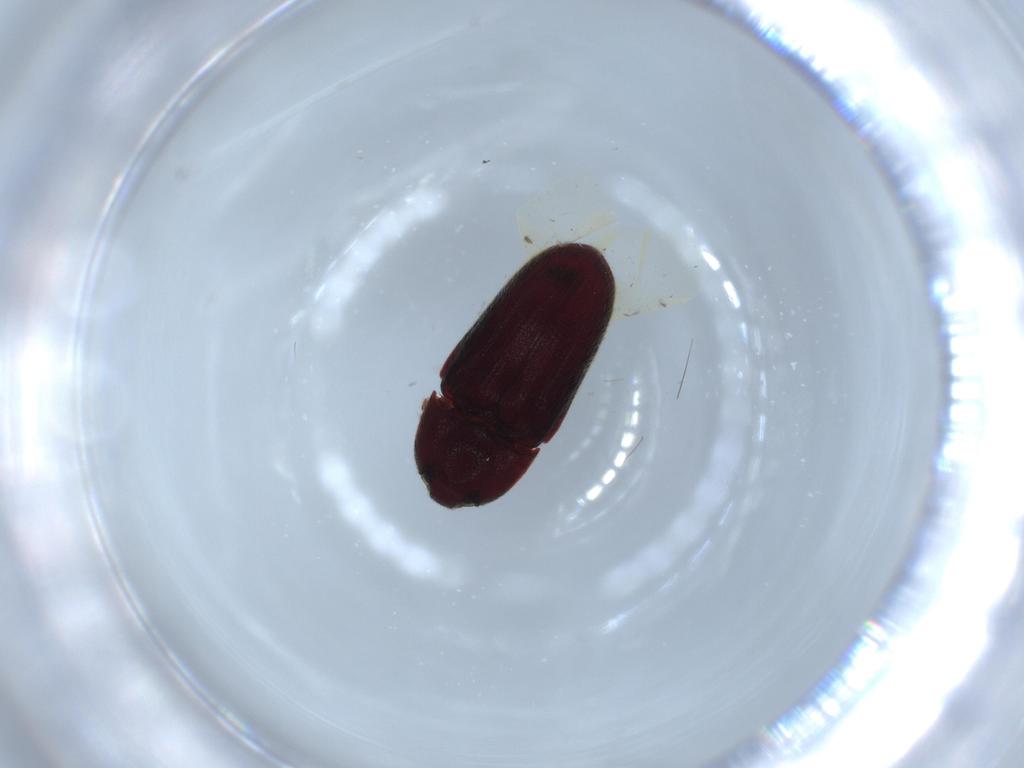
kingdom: Animalia
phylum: Arthropoda
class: Insecta
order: Coleoptera
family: Throscidae
